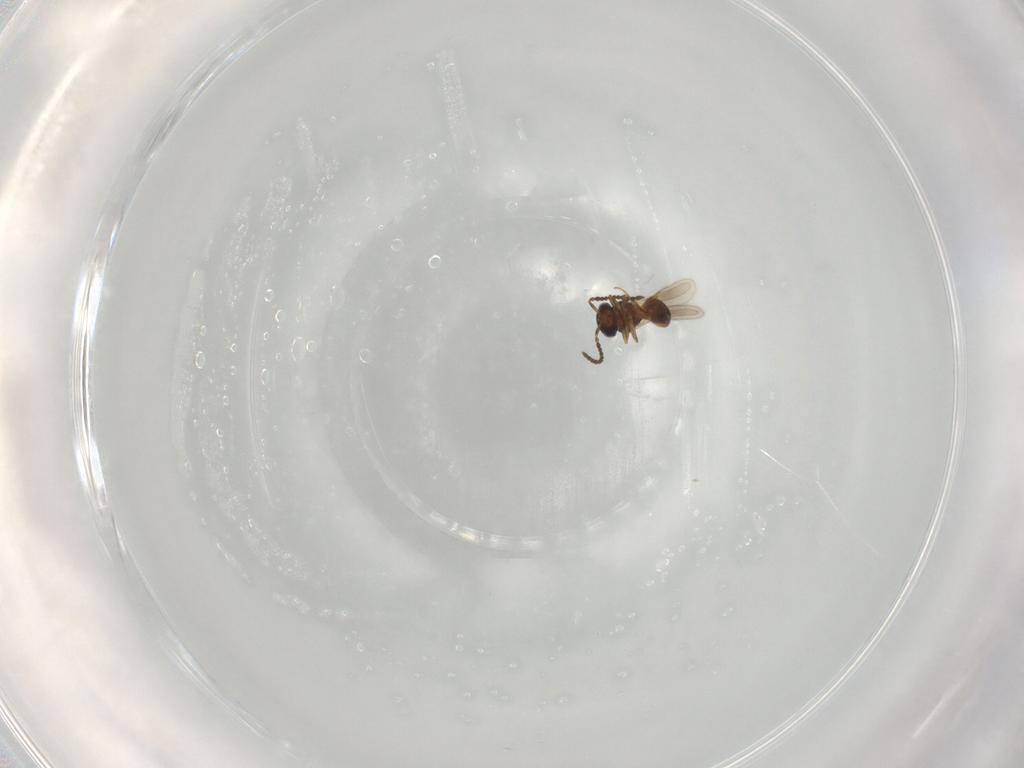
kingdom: Animalia
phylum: Arthropoda
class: Insecta
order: Hymenoptera
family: Scelionidae
